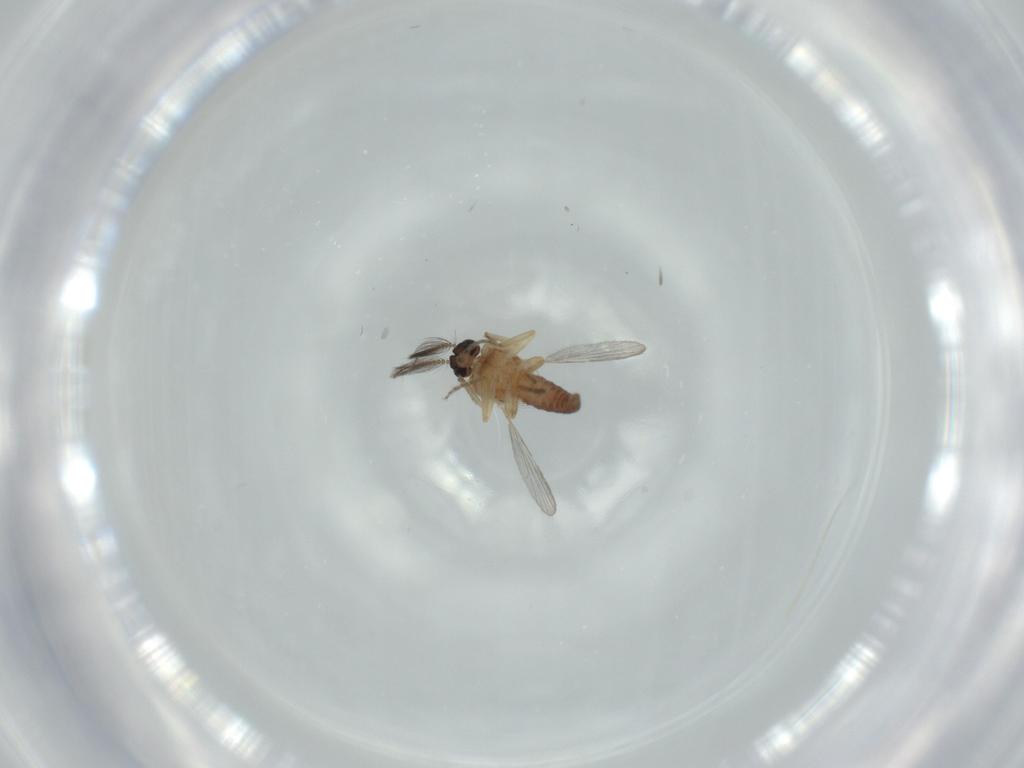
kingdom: Animalia
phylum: Arthropoda
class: Insecta
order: Diptera
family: Ceratopogonidae
